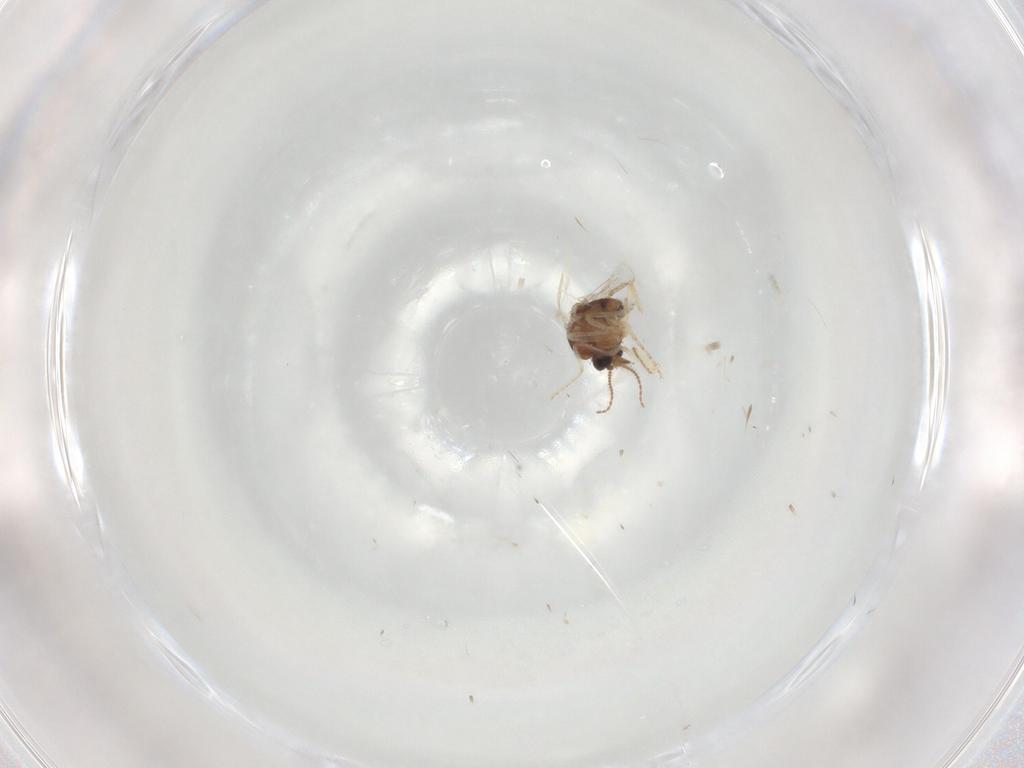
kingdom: Animalia
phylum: Arthropoda
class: Insecta
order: Diptera
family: Ceratopogonidae
